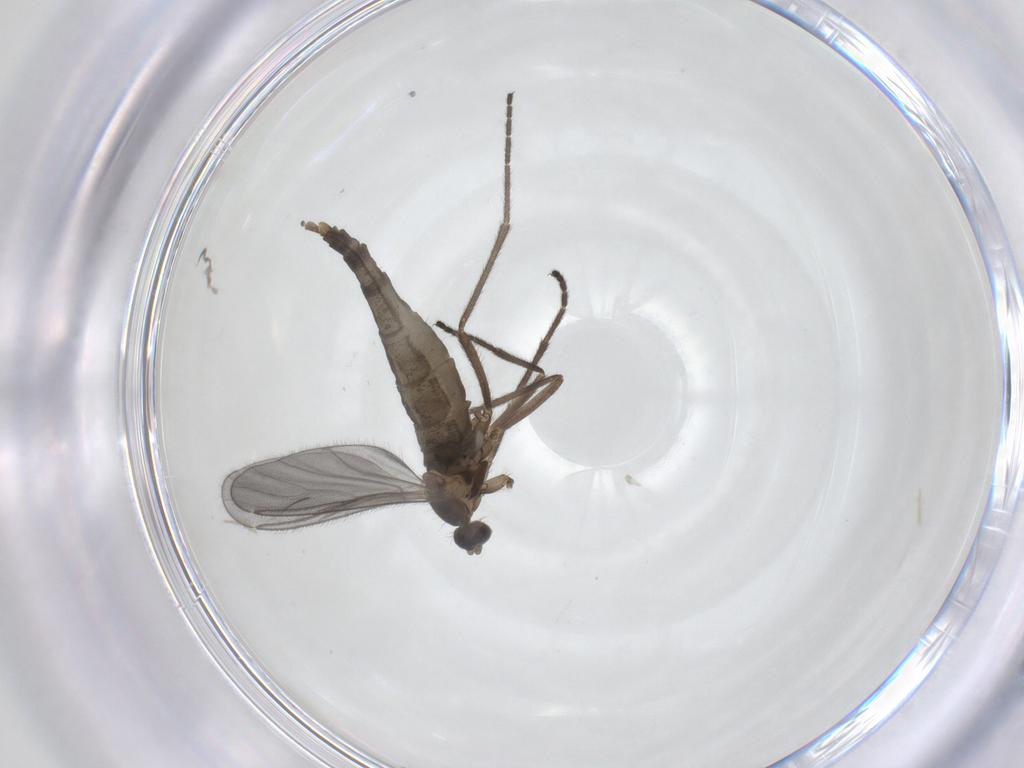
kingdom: Animalia
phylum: Arthropoda
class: Insecta
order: Diptera
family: Cecidomyiidae
